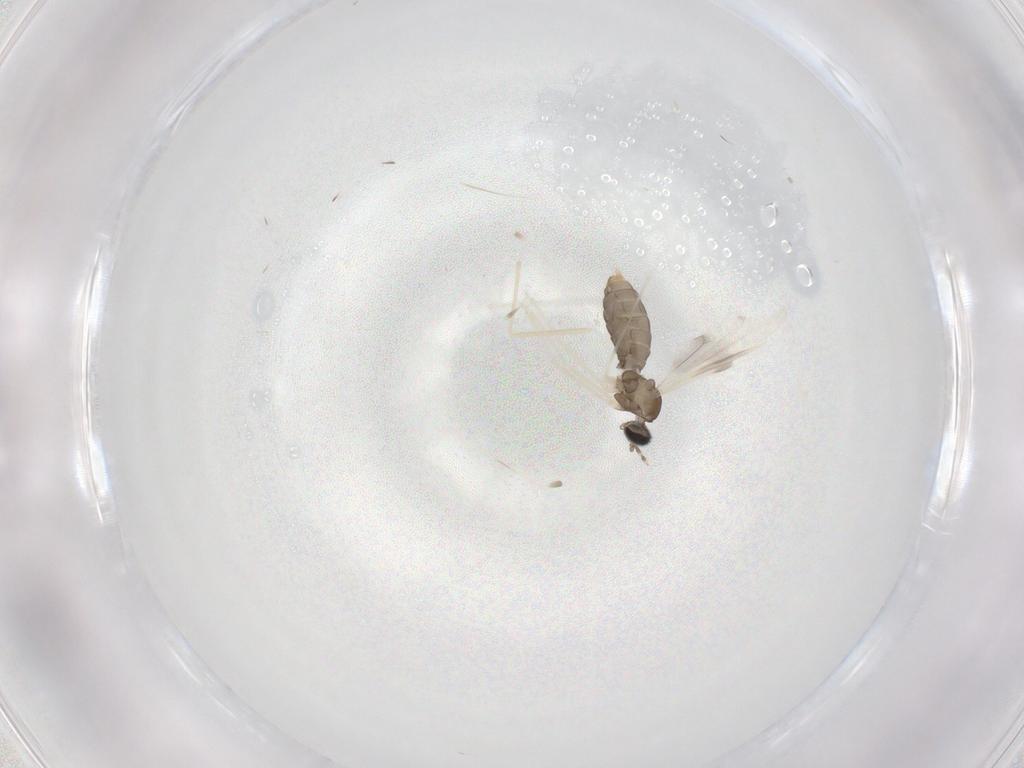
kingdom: Animalia
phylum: Arthropoda
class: Insecta
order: Diptera
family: Cecidomyiidae
